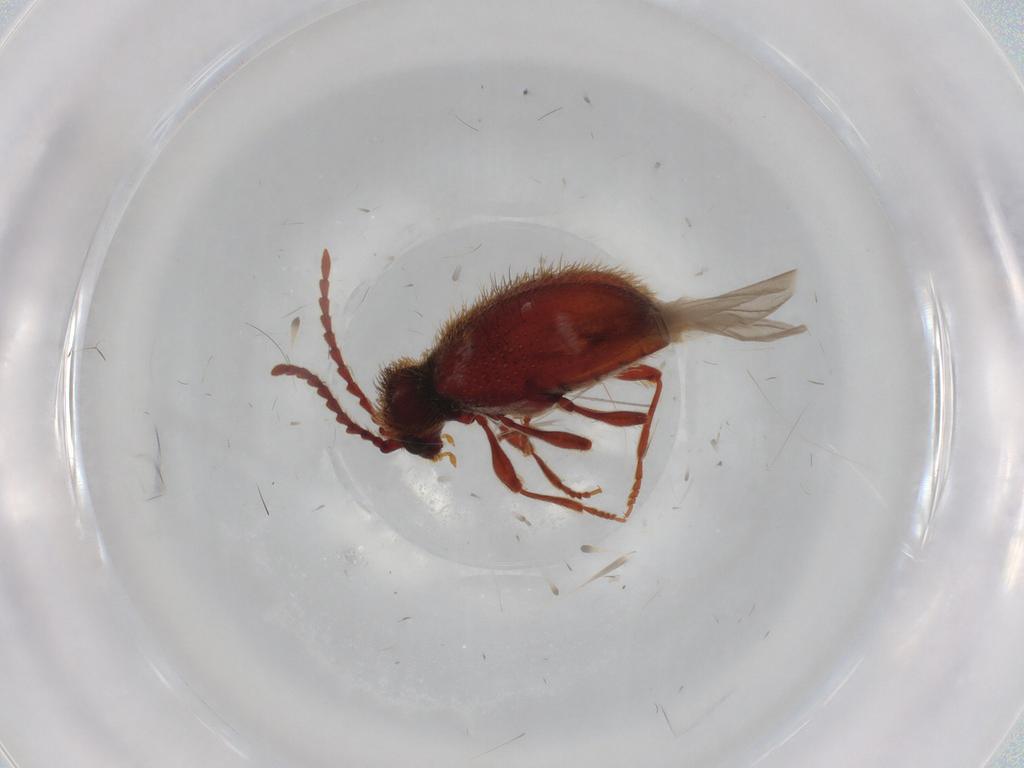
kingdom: Animalia
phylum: Arthropoda
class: Insecta
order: Coleoptera
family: Ptinidae
